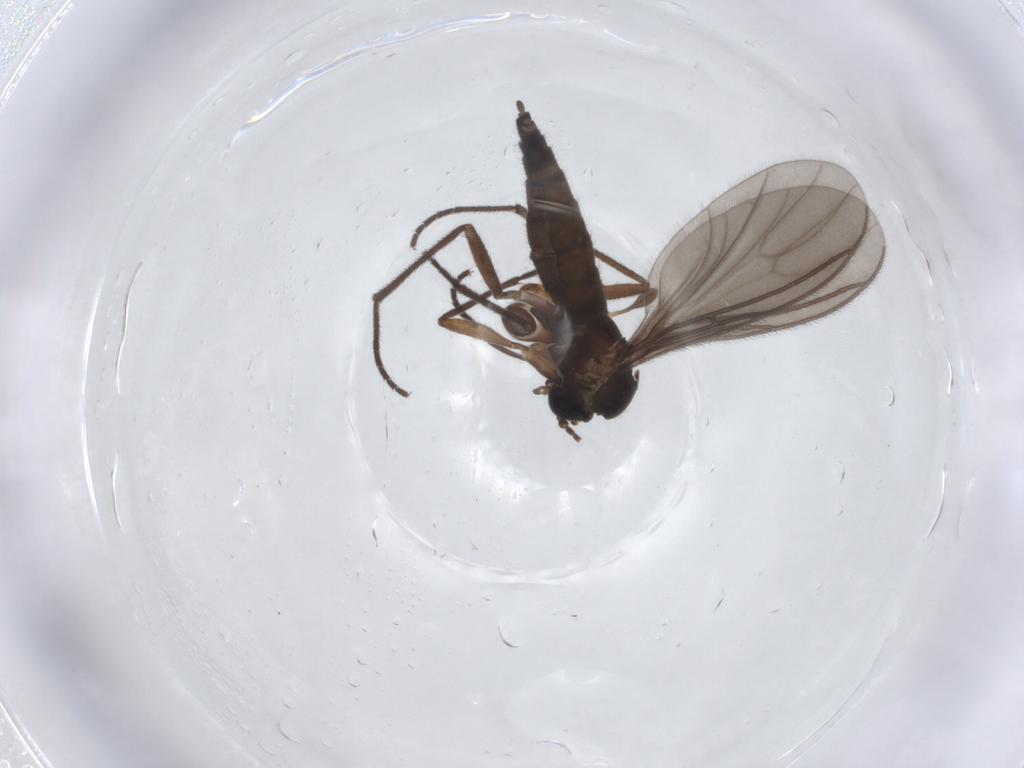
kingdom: Animalia
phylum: Arthropoda
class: Insecta
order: Diptera
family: Sciaridae
